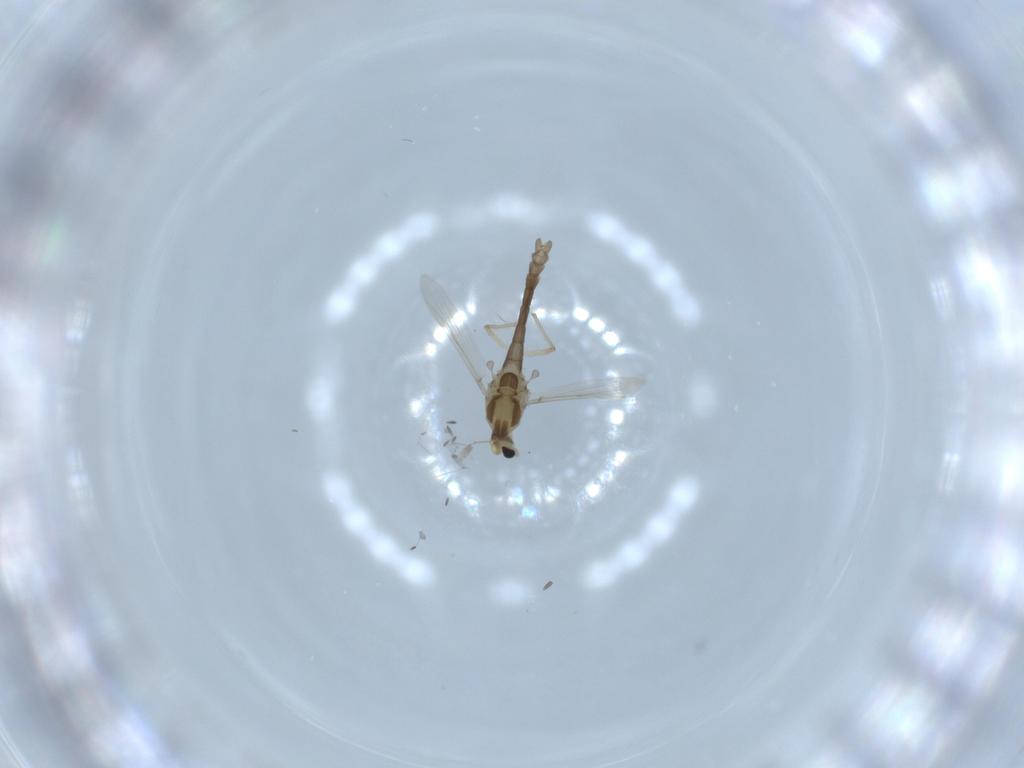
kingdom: Animalia
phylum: Arthropoda
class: Insecta
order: Diptera
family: Chironomidae
